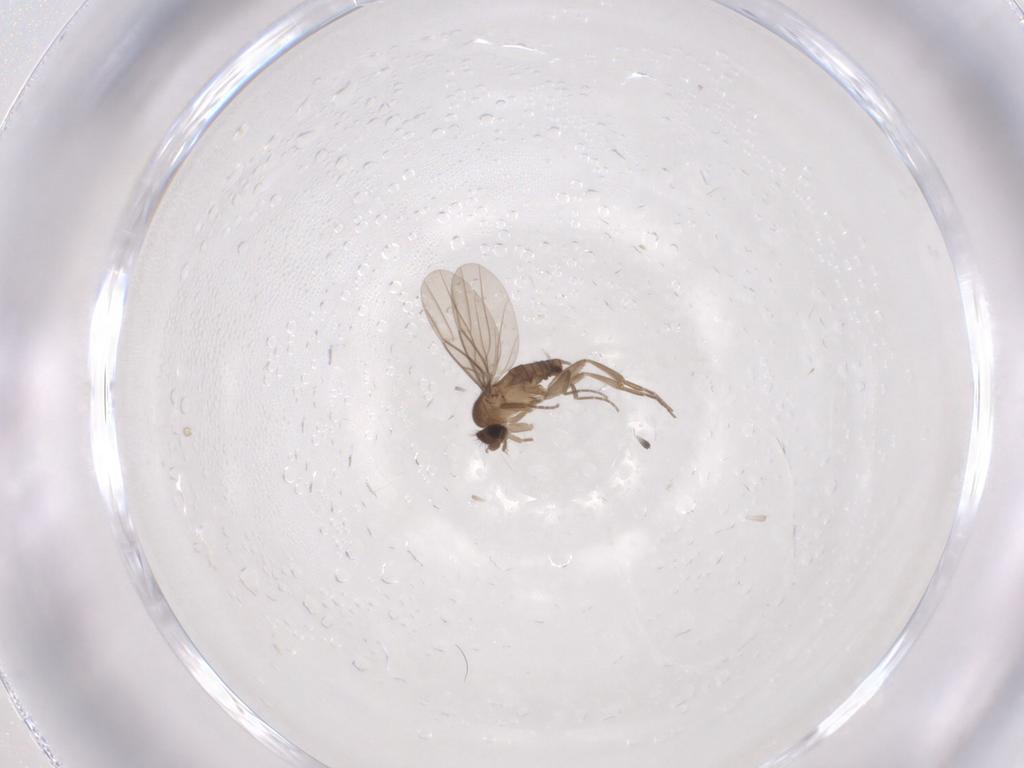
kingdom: Animalia
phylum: Arthropoda
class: Insecta
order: Diptera
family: Phoridae
